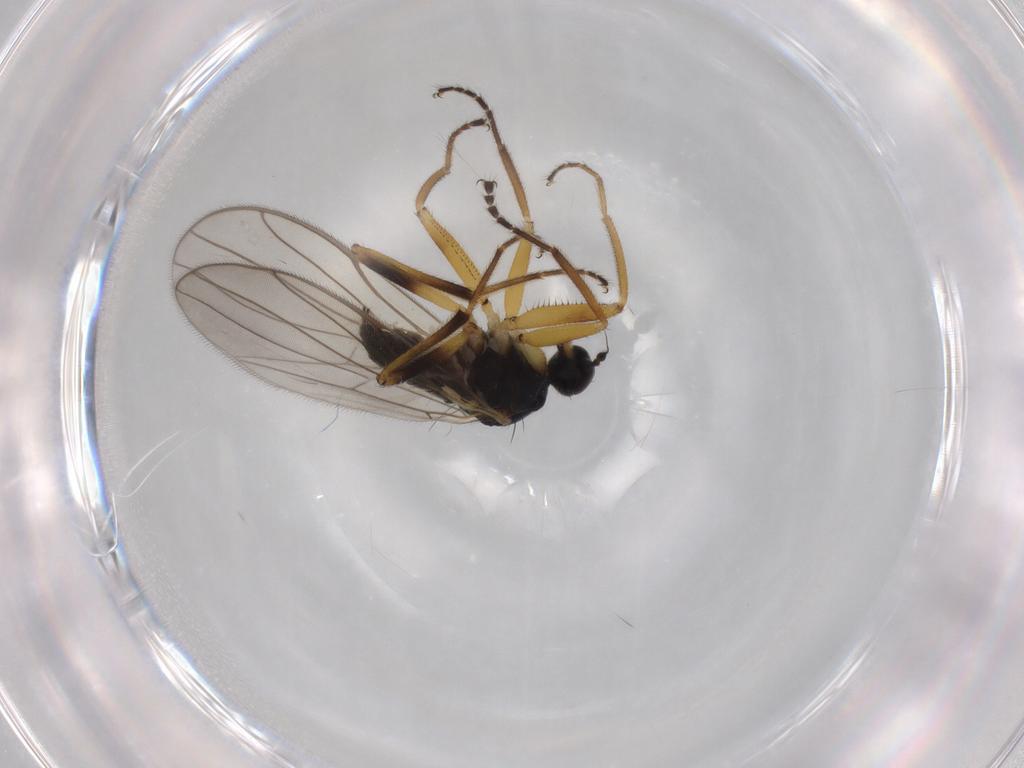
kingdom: Animalia
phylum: Arthropoda
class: Insecta
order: Diptera
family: Hybotidae
